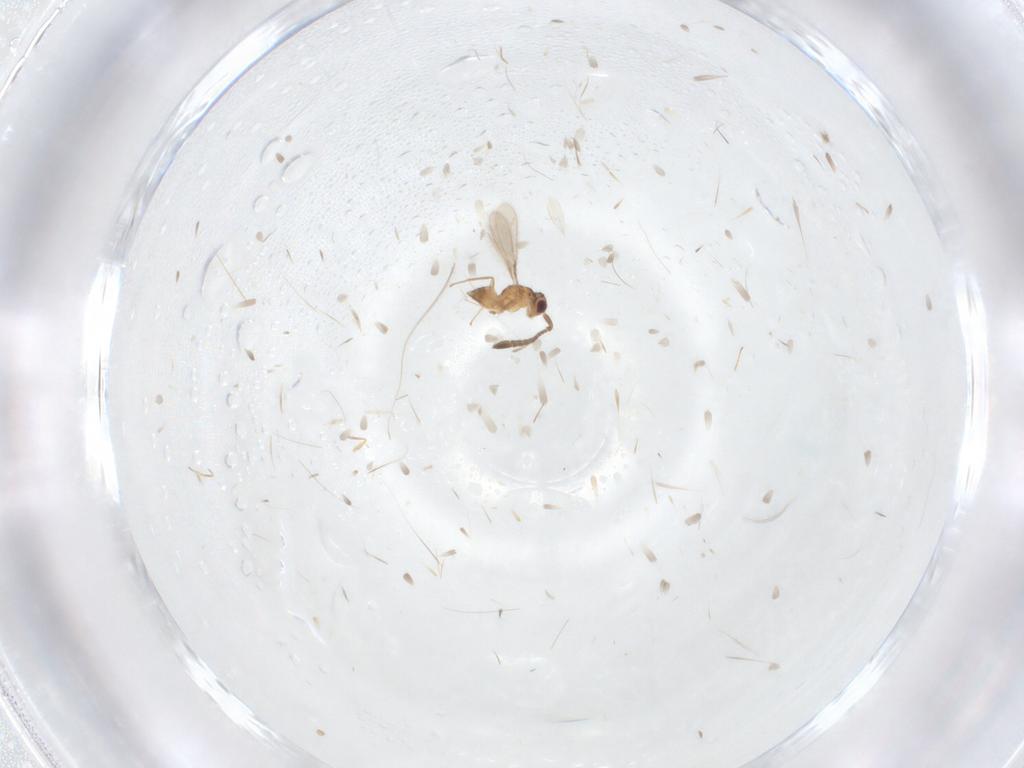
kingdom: Animalia
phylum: Arthropoda
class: Insecta
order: Hymenoptera
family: Mymaridae
